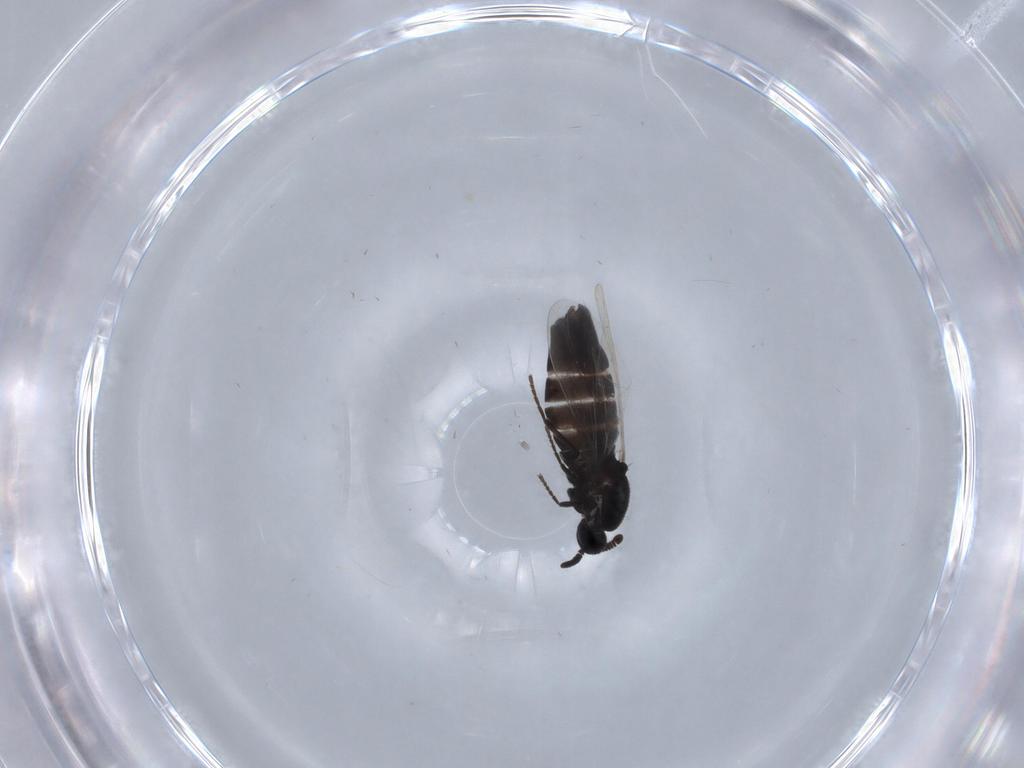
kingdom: Animalia
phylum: Arthropoda
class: Insecta
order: Diptera
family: Scatopsidae
